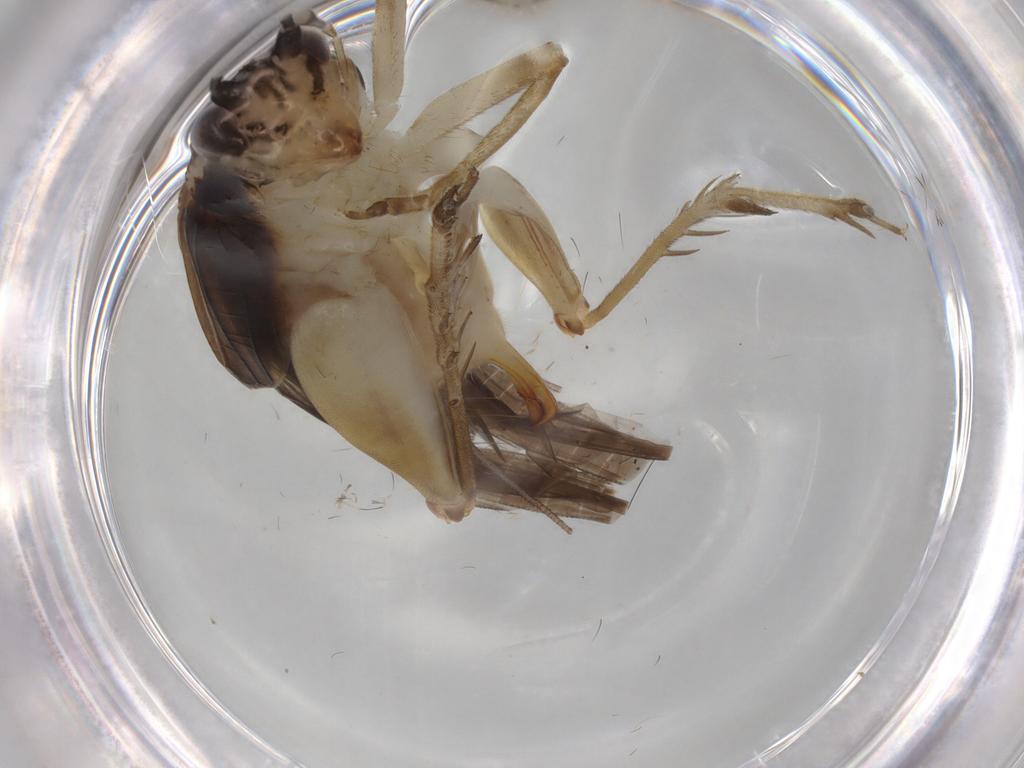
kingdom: Animalia
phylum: Arthropoda
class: Insecta
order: Orthoptera
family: Trigonidiidae
